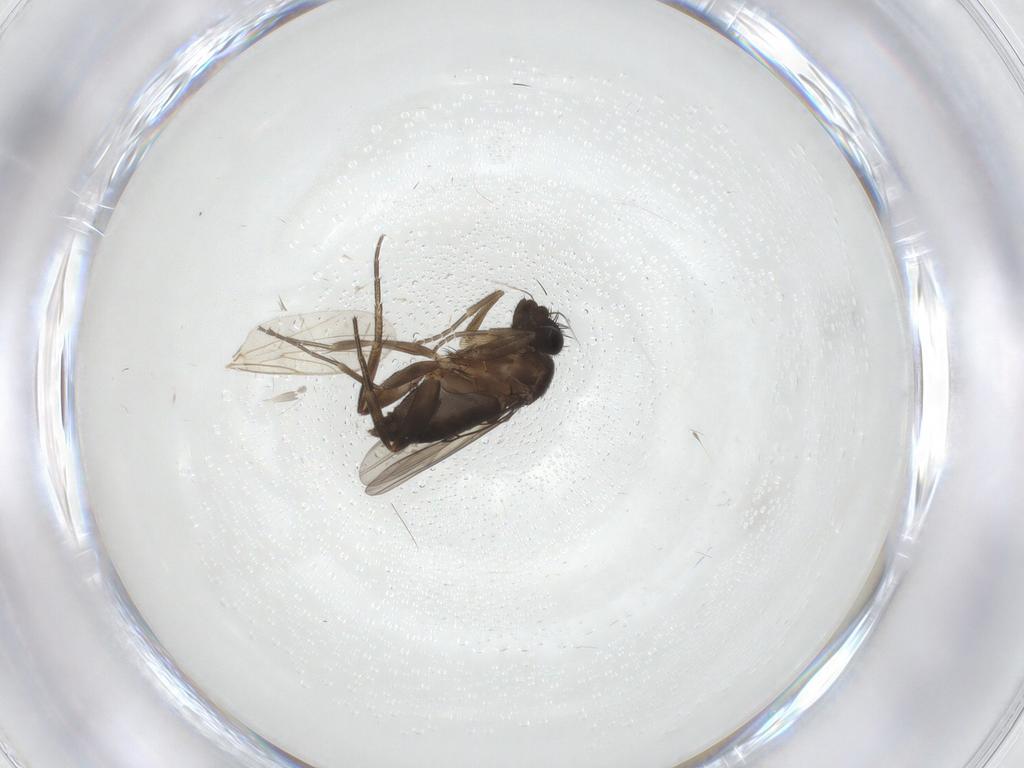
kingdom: Animalia
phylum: Arthropoda
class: Insecta
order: Diptera
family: Phoridae
